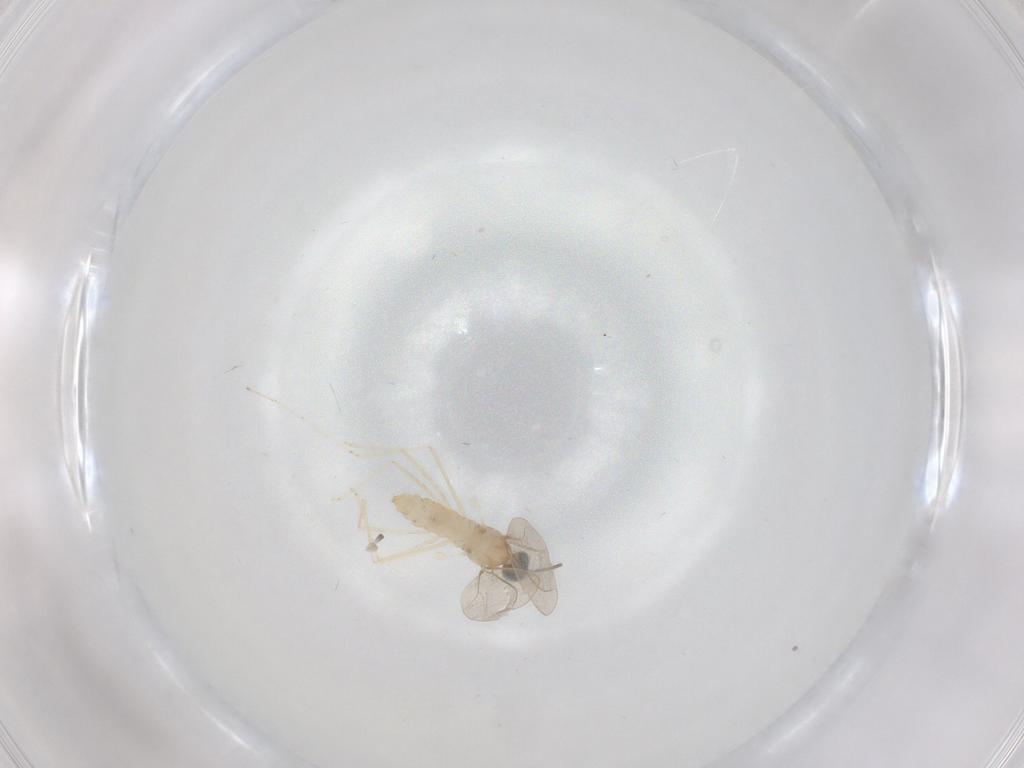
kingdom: Animalia
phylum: Arthropoda
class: Insecta
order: Diptera
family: Cecidomyiidae
